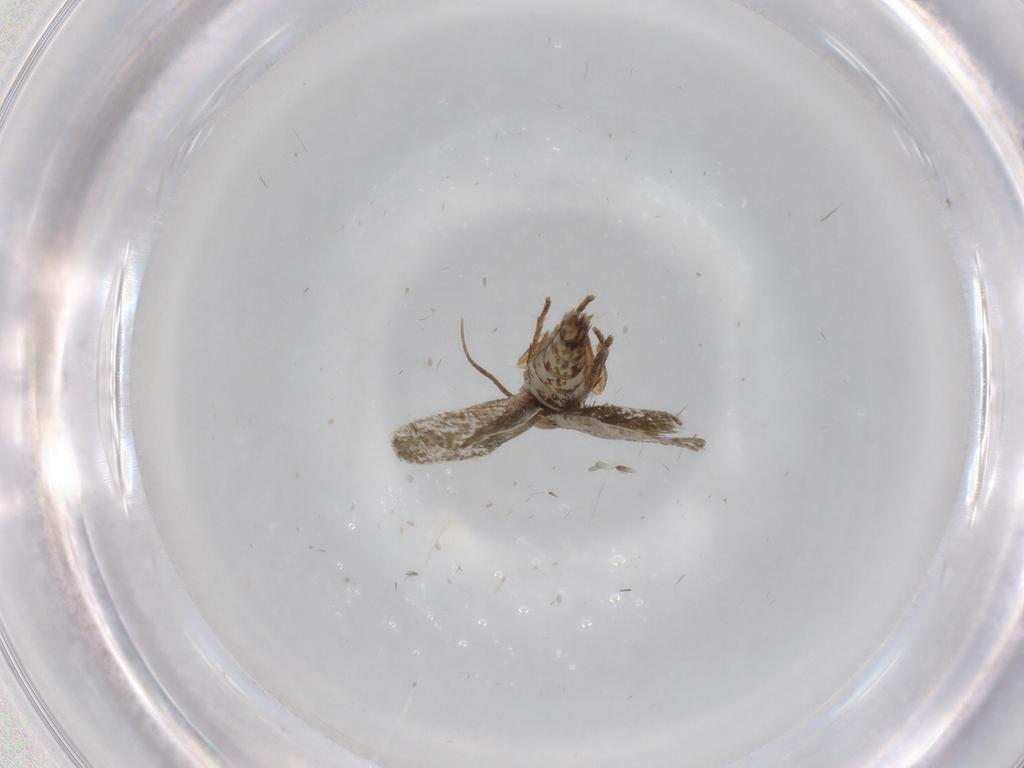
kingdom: Animalia
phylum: Arthropoda
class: Insecta
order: Lepidoptera
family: Tineidae
